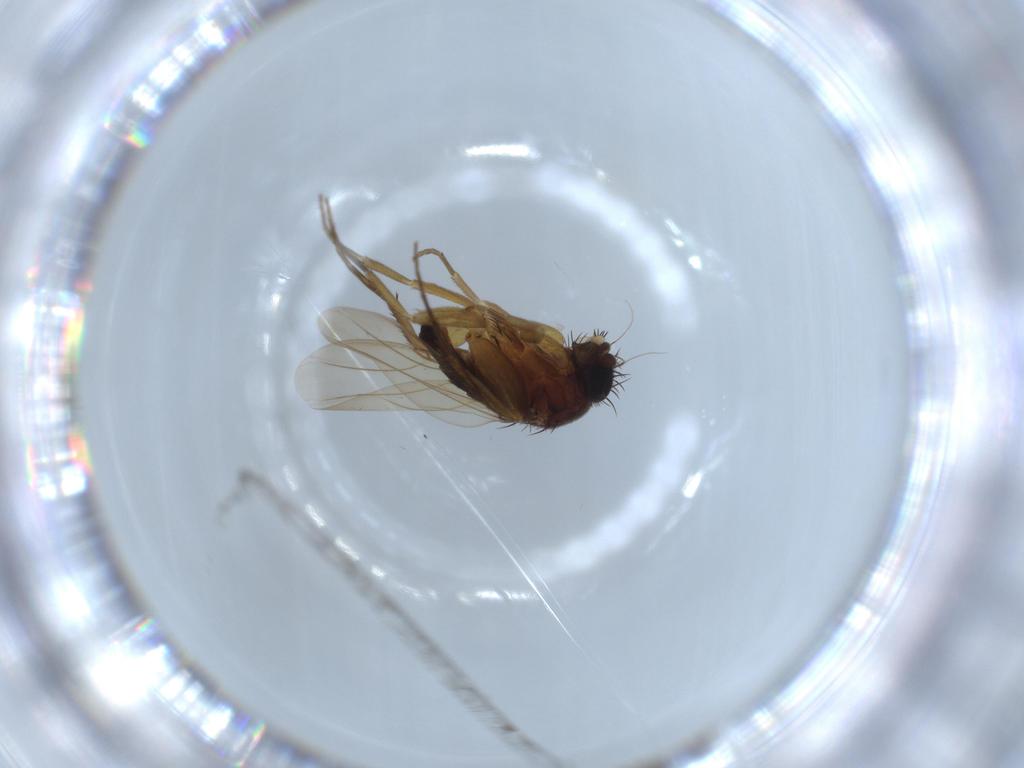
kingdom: Animalia
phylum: Arthropoda
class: Insecta
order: Diptera
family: Phoridae
